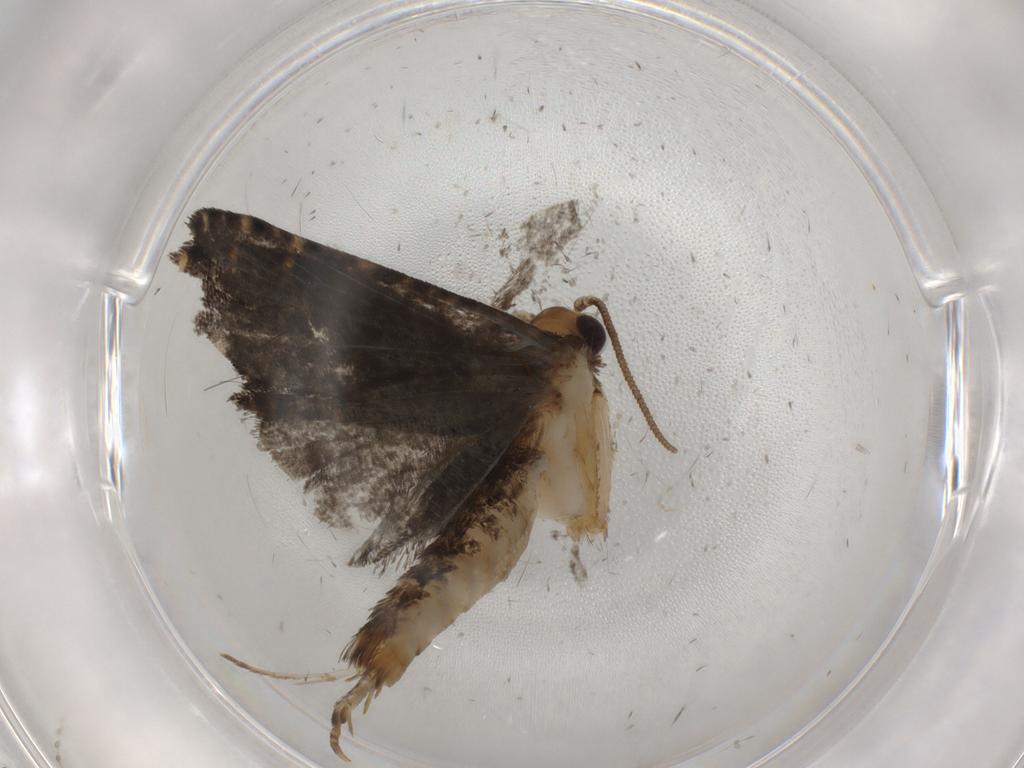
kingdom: Animalia
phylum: Arthropoda
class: Insecta
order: Lepidoptera
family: Tineidae
